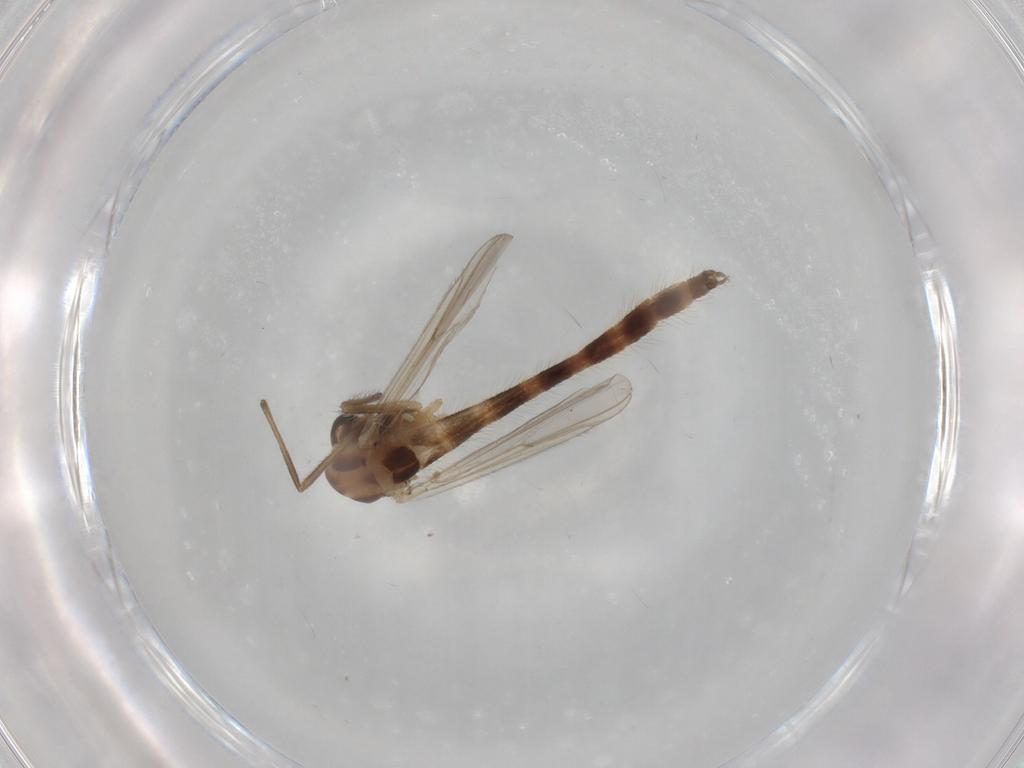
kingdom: Animalia
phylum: Arthropoda
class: Insecta
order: Diptera
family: Chironomidae
